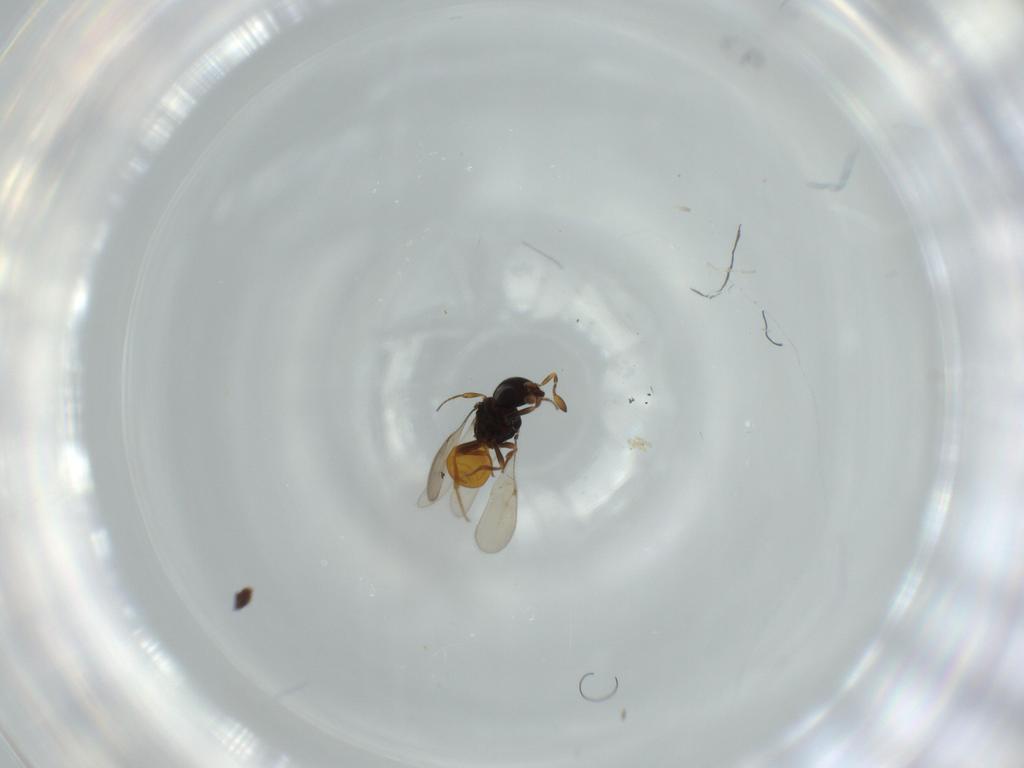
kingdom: Animalia
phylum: Arthropoda
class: Insecta
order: Hymenoptera
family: Scelionidae
